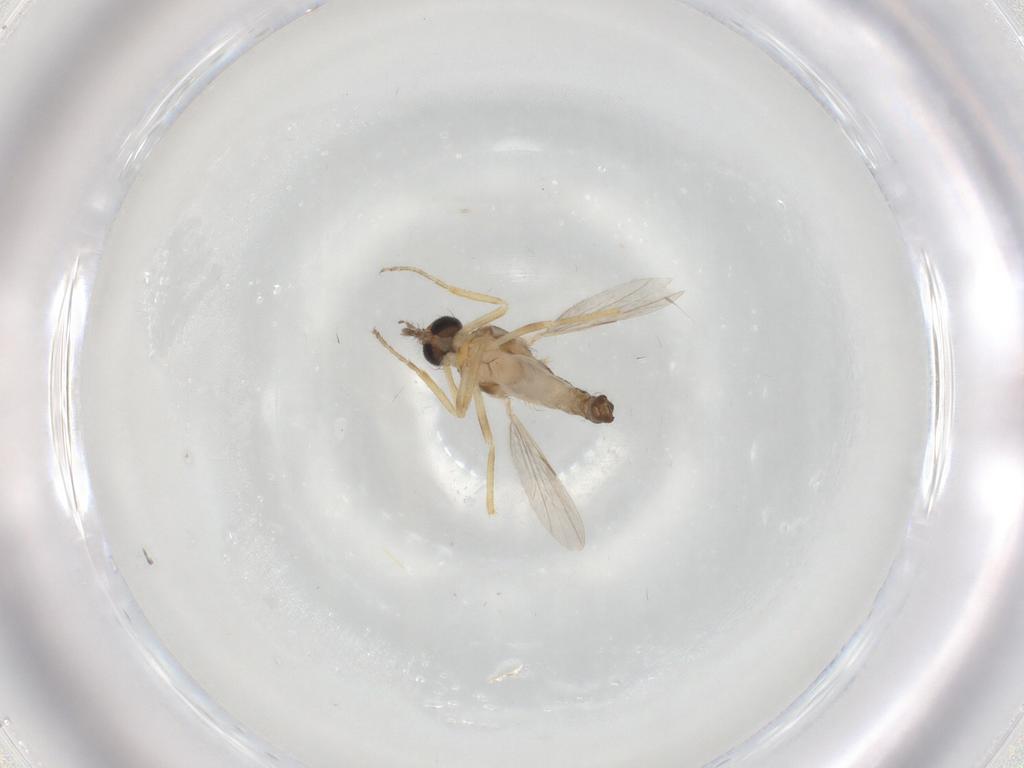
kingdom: Animalia
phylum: Arthropoda
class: Insecta
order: Diptera
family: Ceratopogonidae
